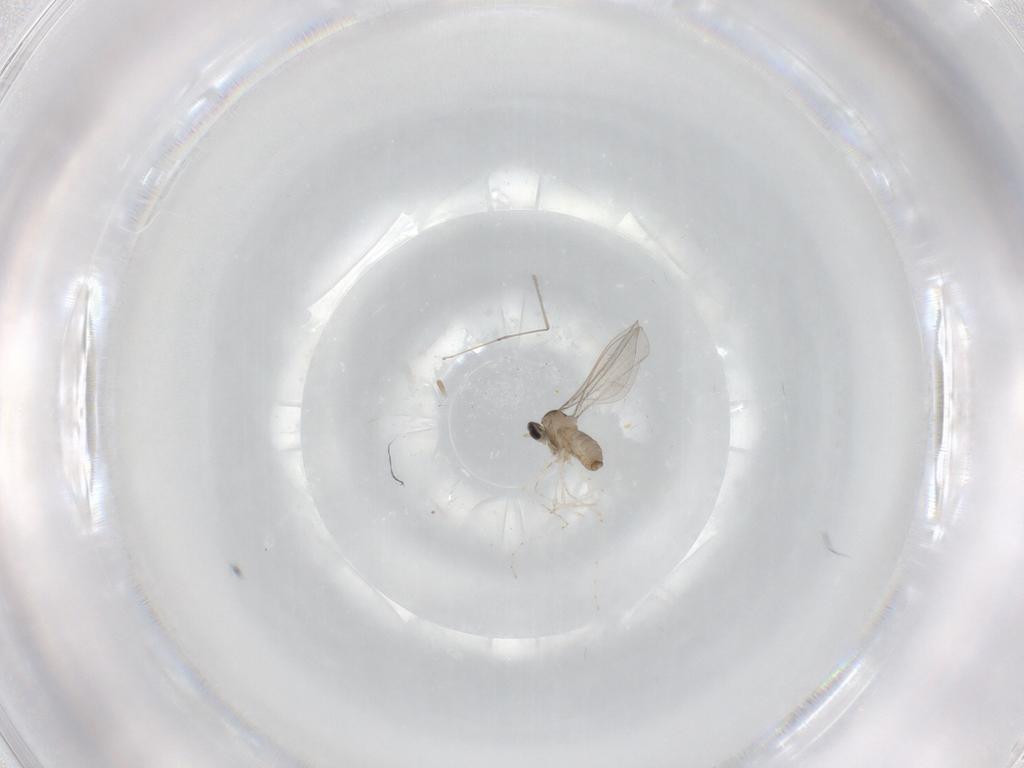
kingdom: Animalia
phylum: Arthropoda
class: Insecta
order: Diptera
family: Cecidomyiidae
